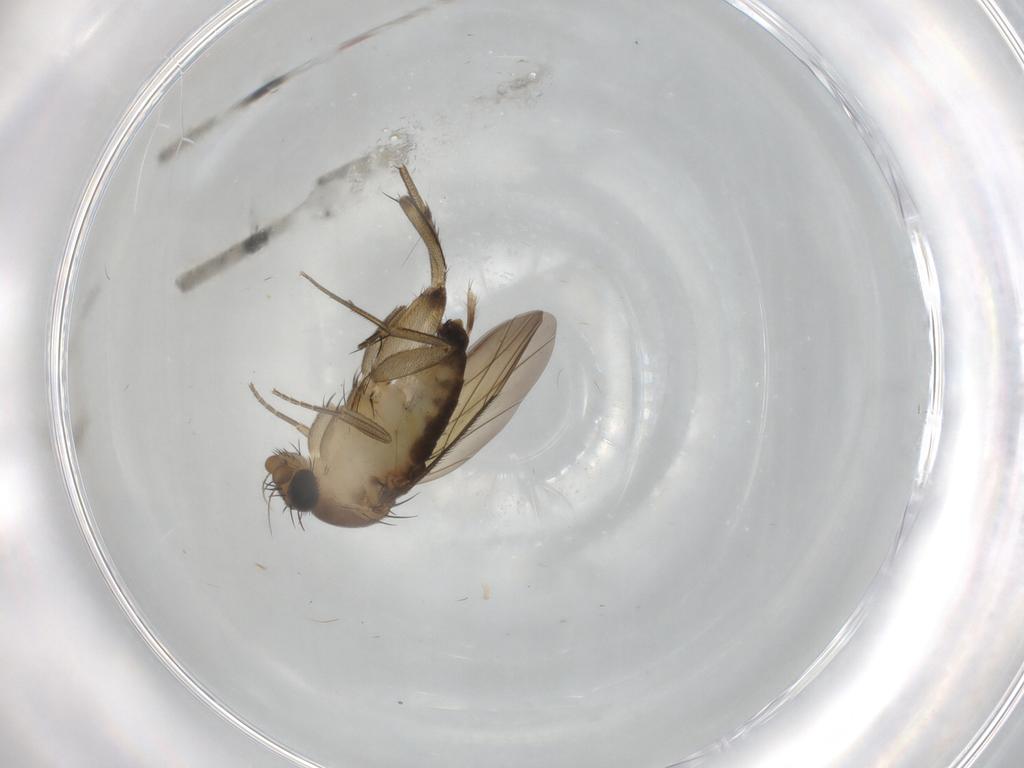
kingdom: Animalia
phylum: Arthropoda
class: Insecta
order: Diptera
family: Phoridae
